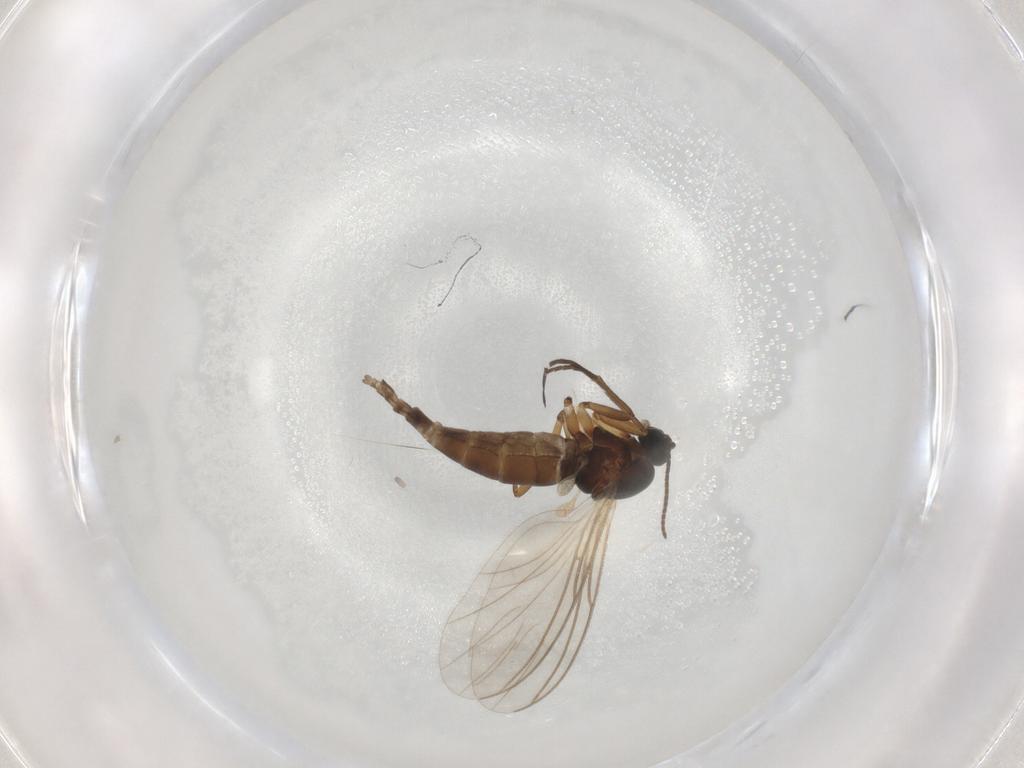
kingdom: Animalia
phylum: Arthropoda
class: Insecta
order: Diptera
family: Sciaridae
